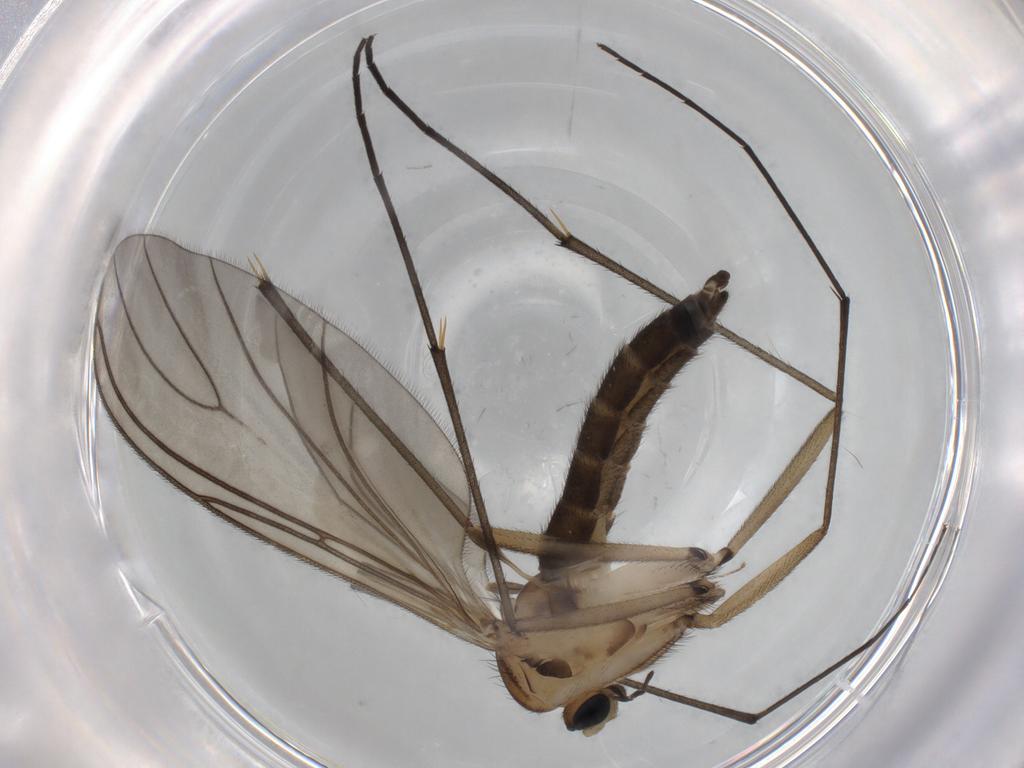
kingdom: Animalia
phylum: Arthropoda
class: Insecta
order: Diptera
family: Sciaridae
